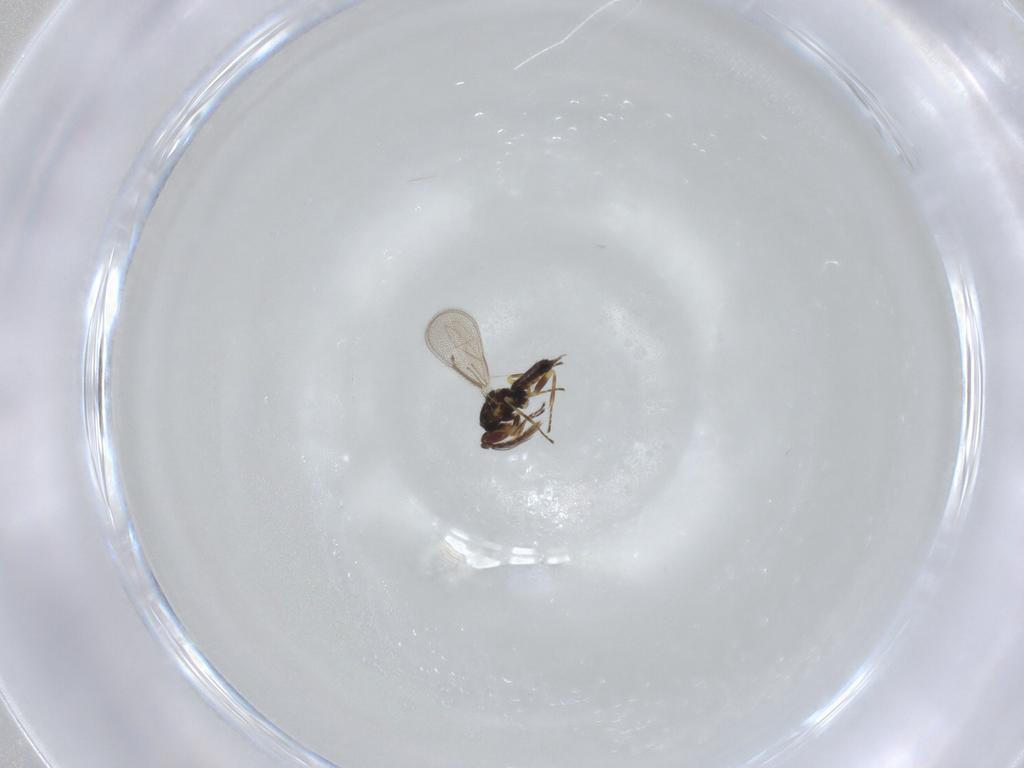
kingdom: Animalia
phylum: Arthropoda
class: Insecta
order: Hymenoptera
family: Eulophidae
